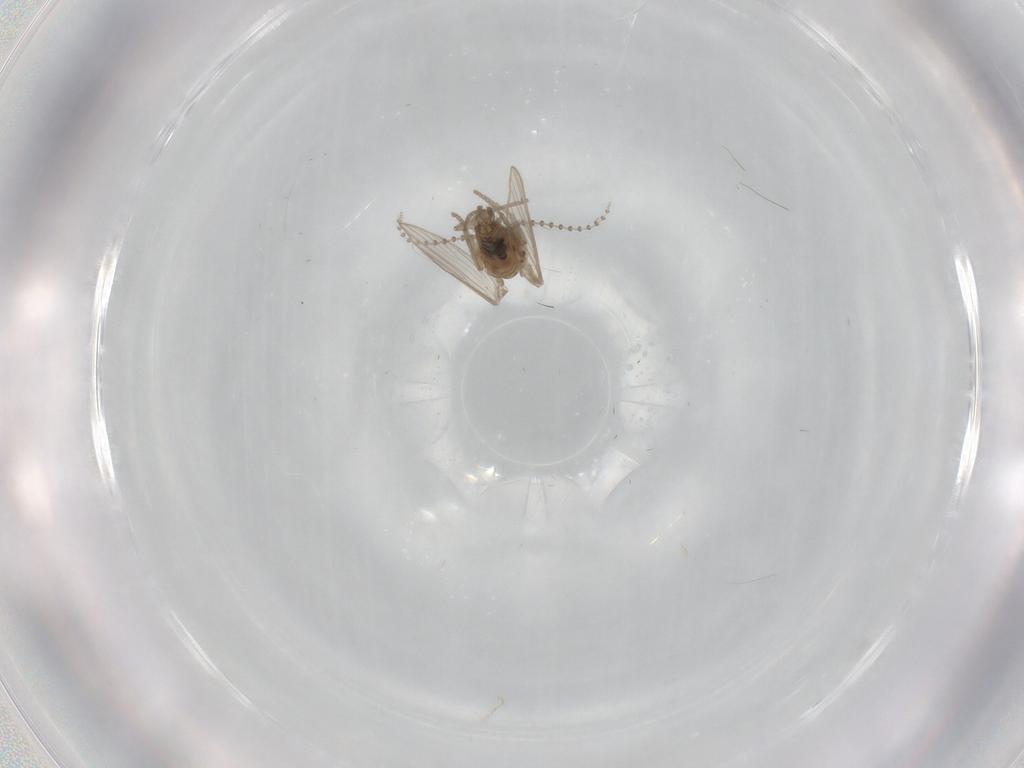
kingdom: Animalia
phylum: Arthropoda
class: Insecta
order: Diptera
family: Psychodidae
